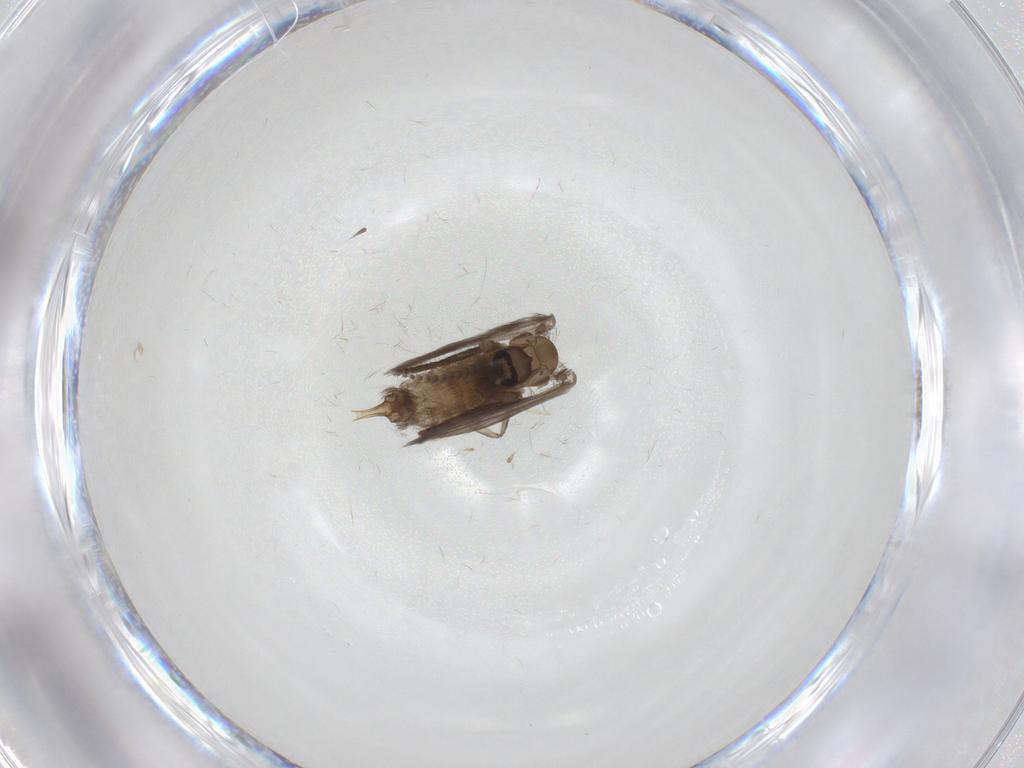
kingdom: Animalia
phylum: Arthropoda
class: Insecta
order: Diptera
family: Psychodidae
